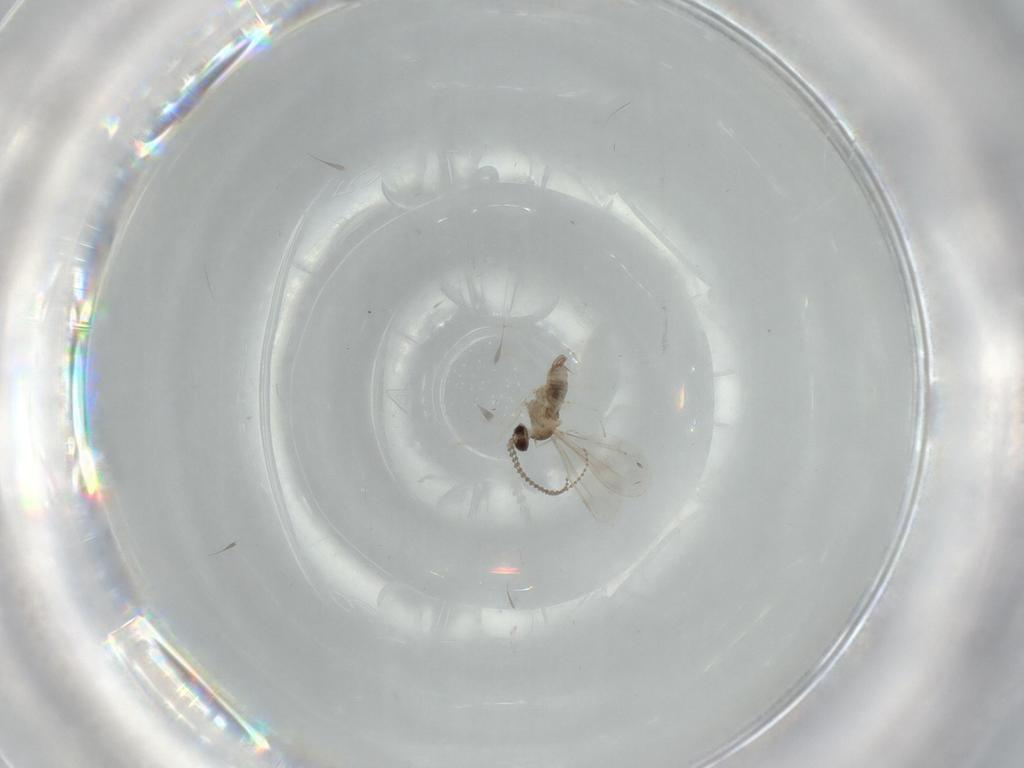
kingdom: Animalia
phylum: Arthropoda
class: Insecta
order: Diptera
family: Cecidomyiidae
